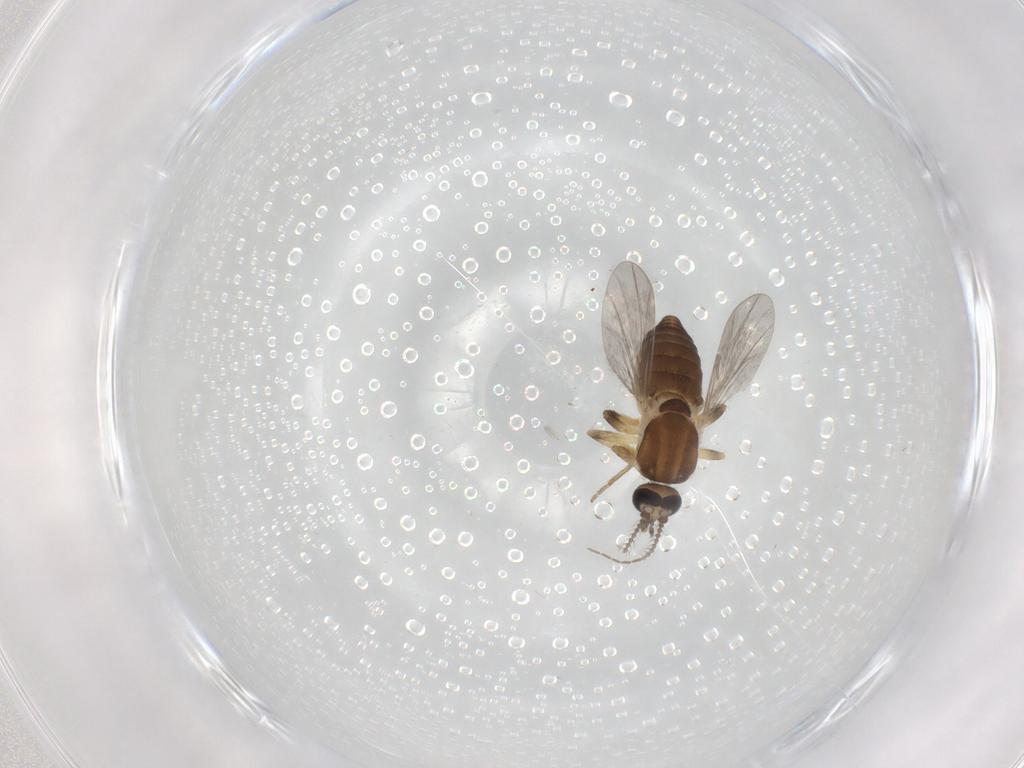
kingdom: Animalia
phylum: Arthropoda
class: Insecta
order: Diptera
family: Ceratopogonidae
